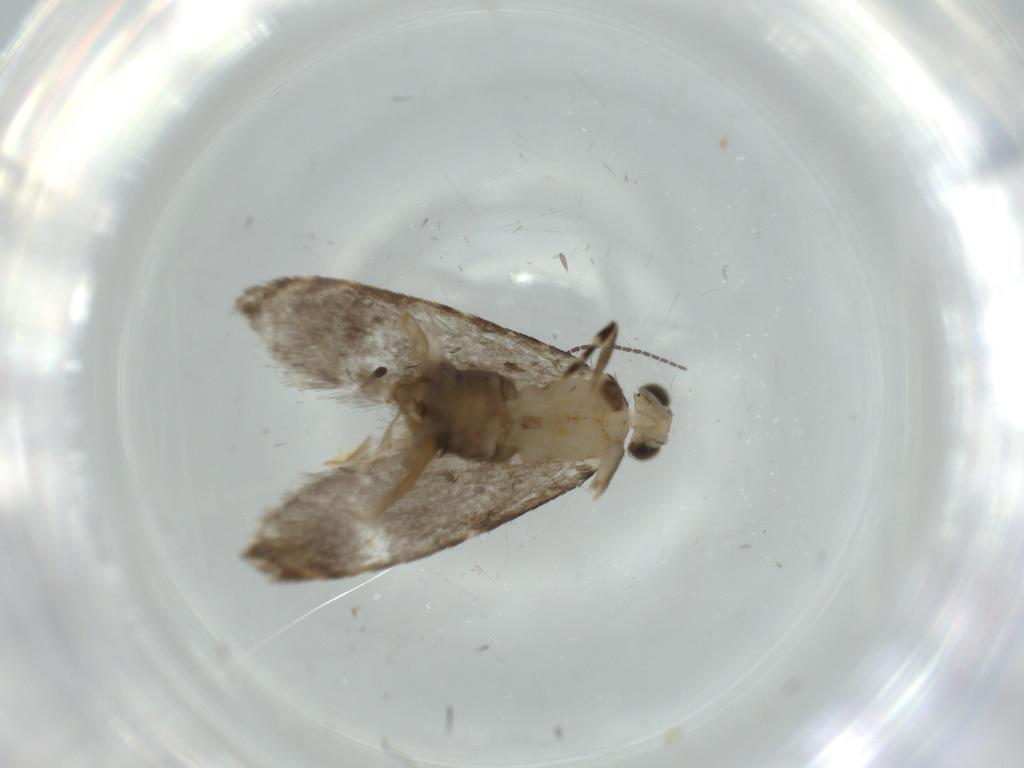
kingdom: Animalia
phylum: Arthropoda
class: Insecta
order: Lepidoptera
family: Tineidae
